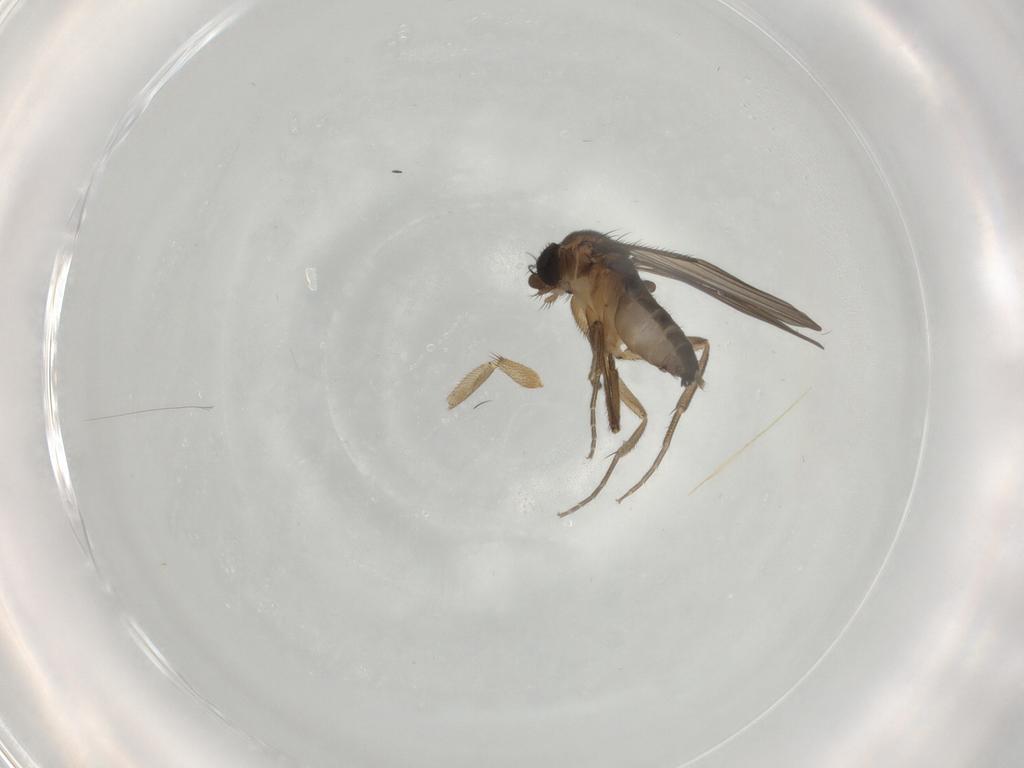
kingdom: Animalia
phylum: Arthropoda
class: Insecta
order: Diptera
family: Phoridae
